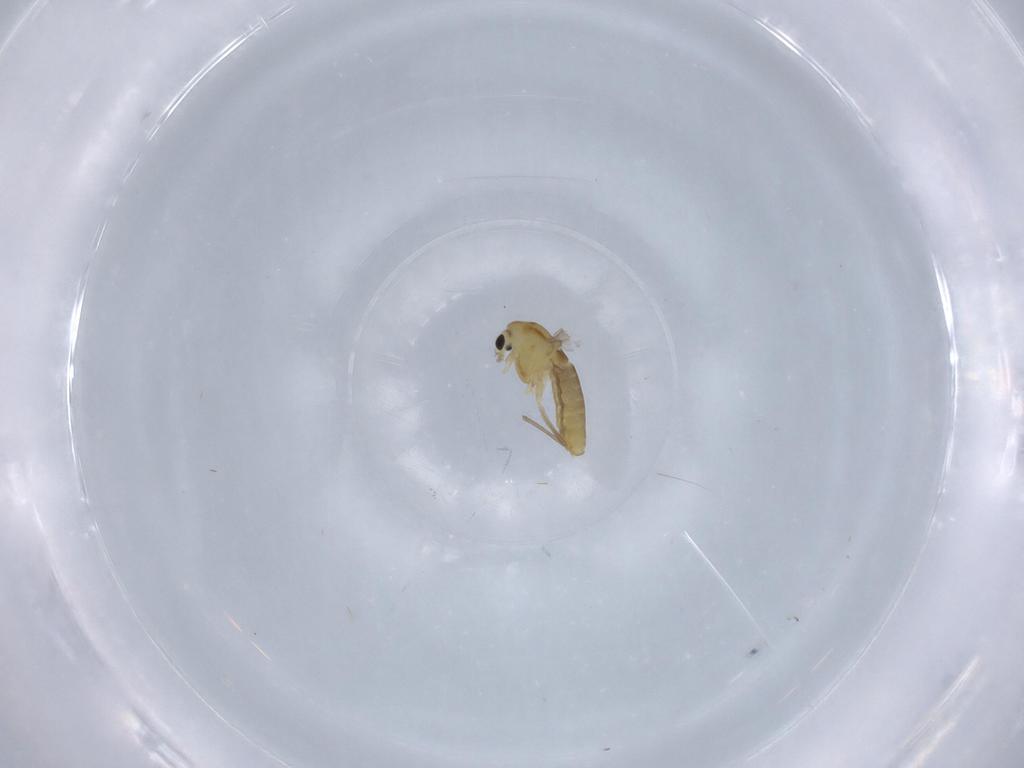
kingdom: Animalia
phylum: Arthropoda
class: Insecta
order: Diptera
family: Chironomidae
